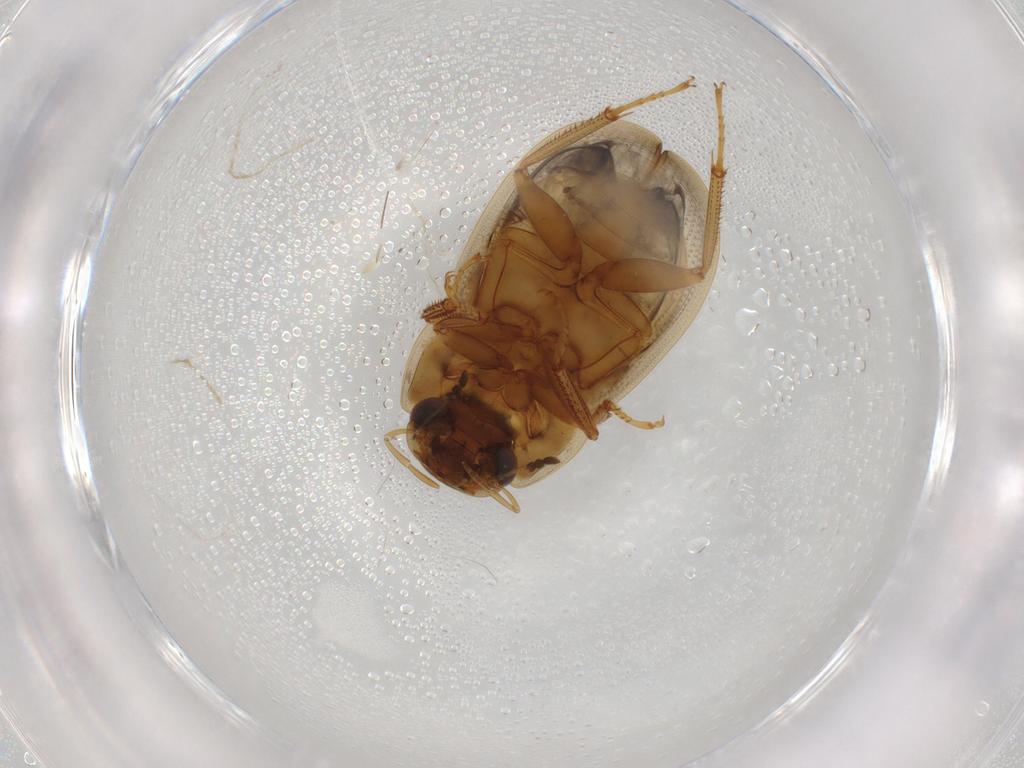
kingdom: Animalia
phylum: Arthropoda
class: Insecta
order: Coleoptera
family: Hydrophilidae
